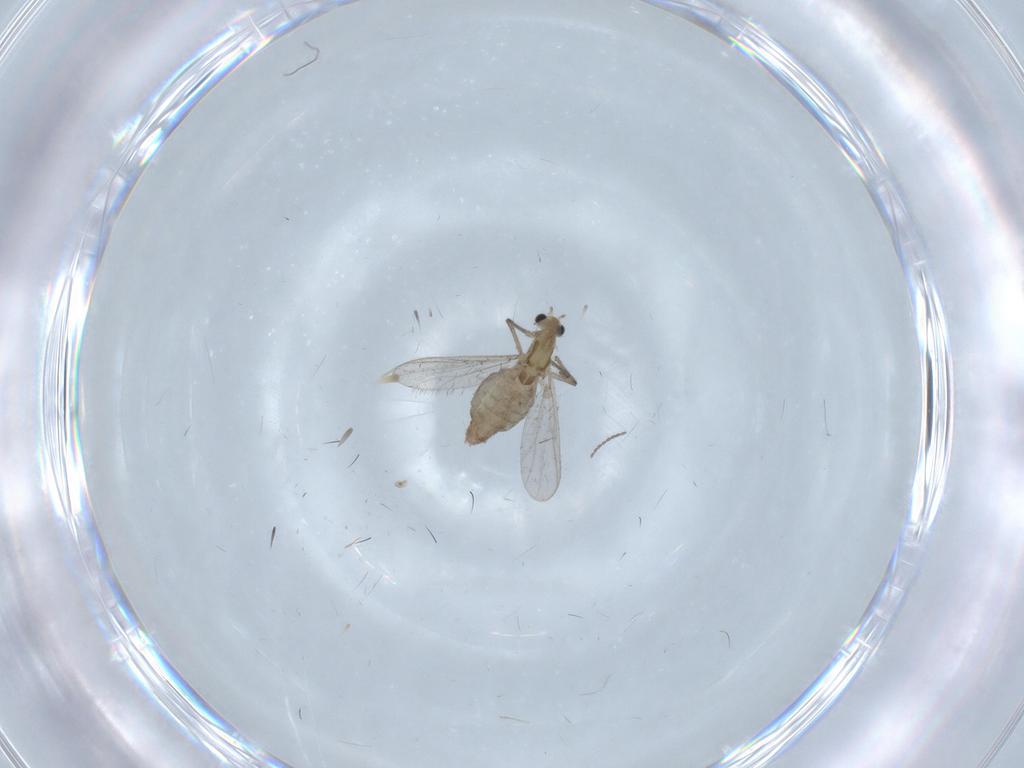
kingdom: Animalia
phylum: Arthropoda
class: Insecta
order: Diptera
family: Chironomidae
